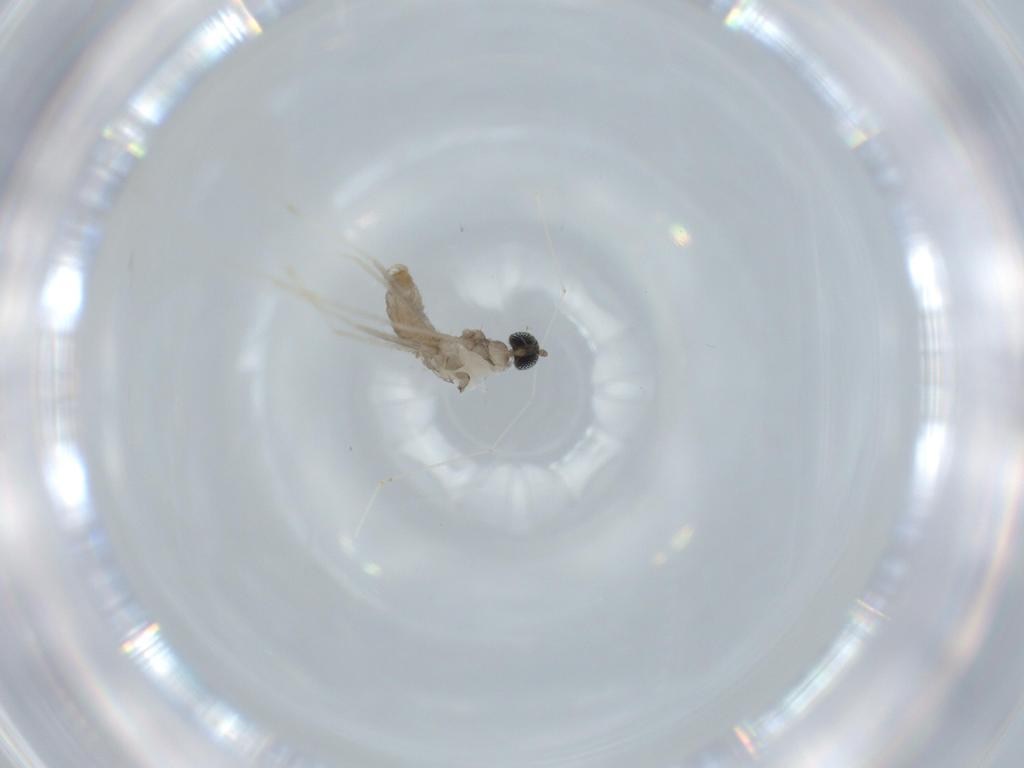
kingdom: Animalia
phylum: Arthropoda
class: Insecta
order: Diptera
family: Cecidomyiidae
